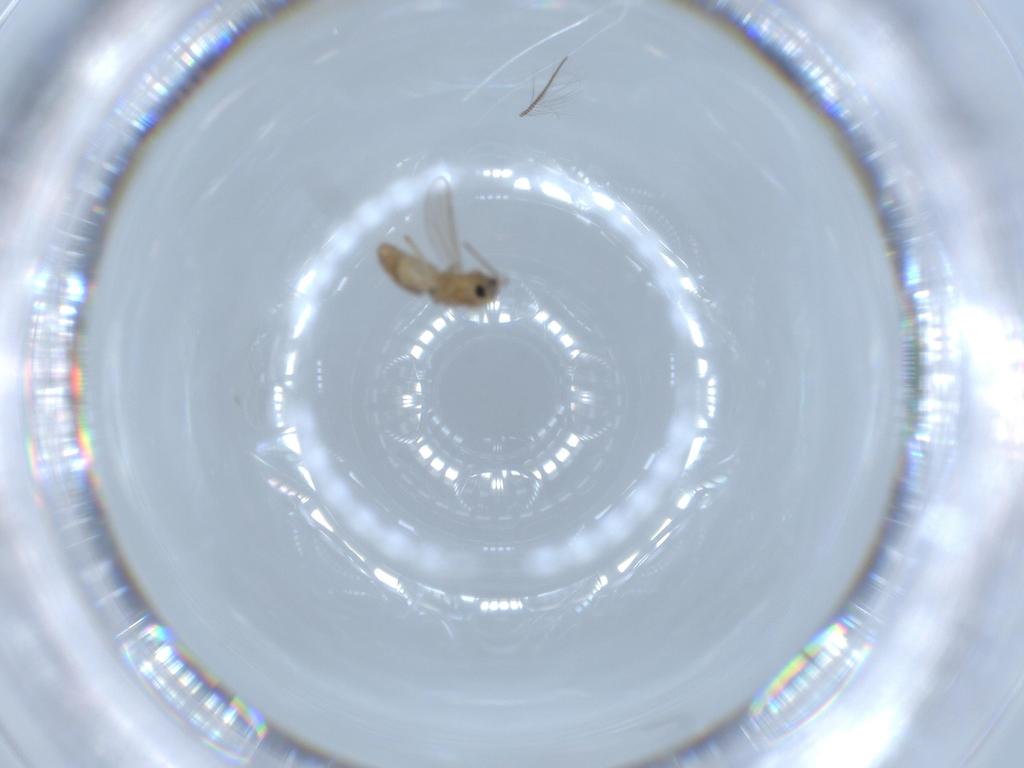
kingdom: Animalia
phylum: Arthropoda
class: Insecta
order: Diptera
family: Chironomidae
